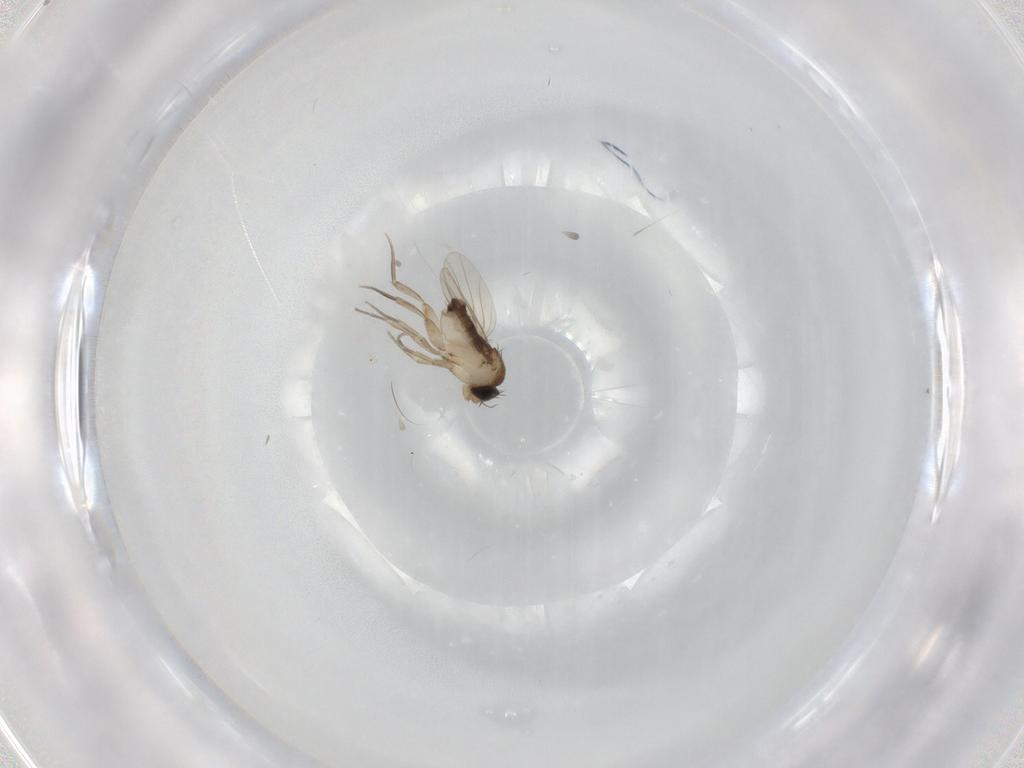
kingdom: Animalia
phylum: Arthropoda
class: Insecta
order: Diptera
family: Phoridae
